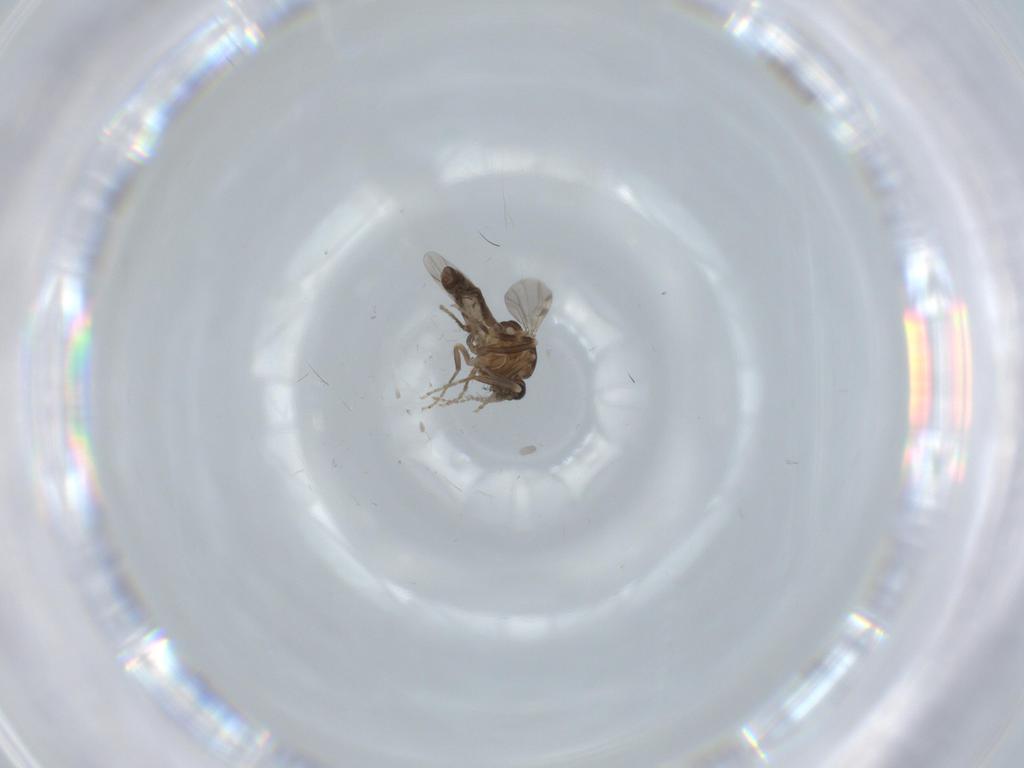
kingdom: Animalia
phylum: Arthropoda
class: Insecta
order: Diptera
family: Ceratopogonidae
